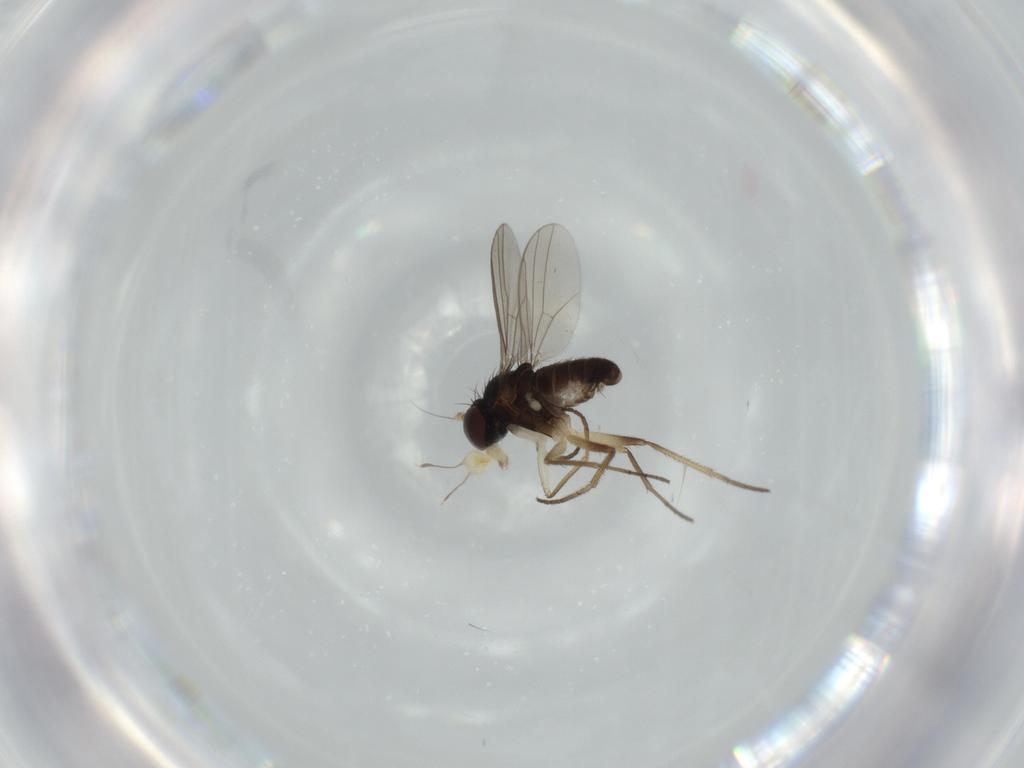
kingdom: Animalia
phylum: Arthropoda
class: Insecta
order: Diptera
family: Dolichopodidae
